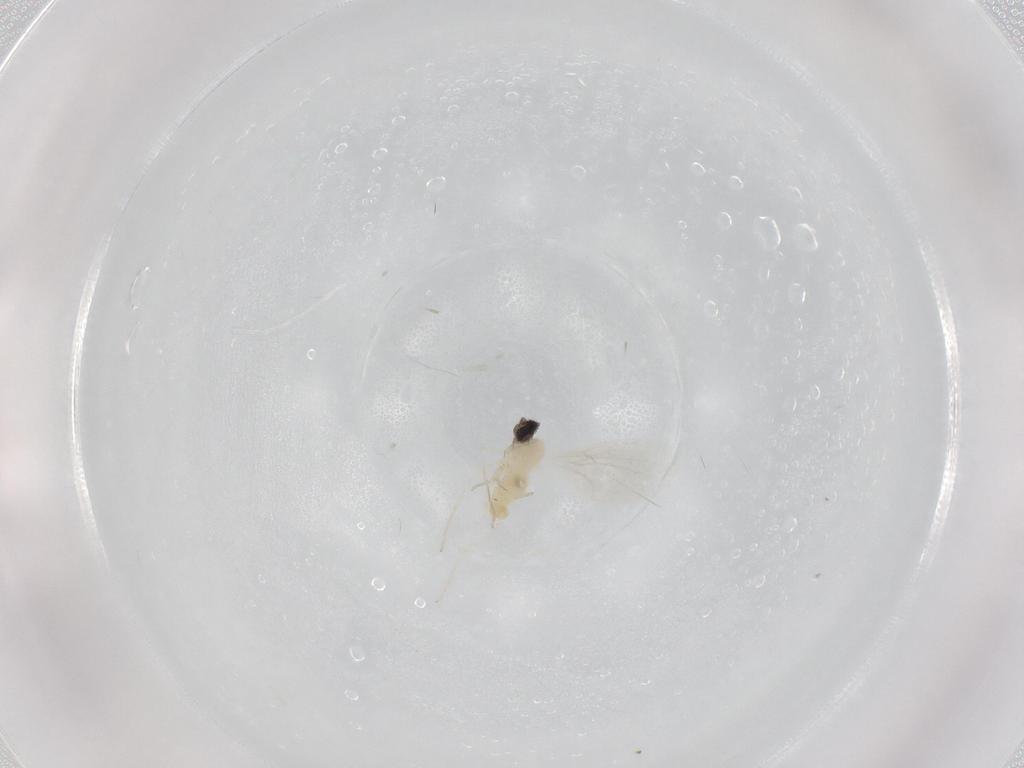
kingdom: Animalia
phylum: Arthropoda
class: Insecta
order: Diptera
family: Cecidomyiidae
